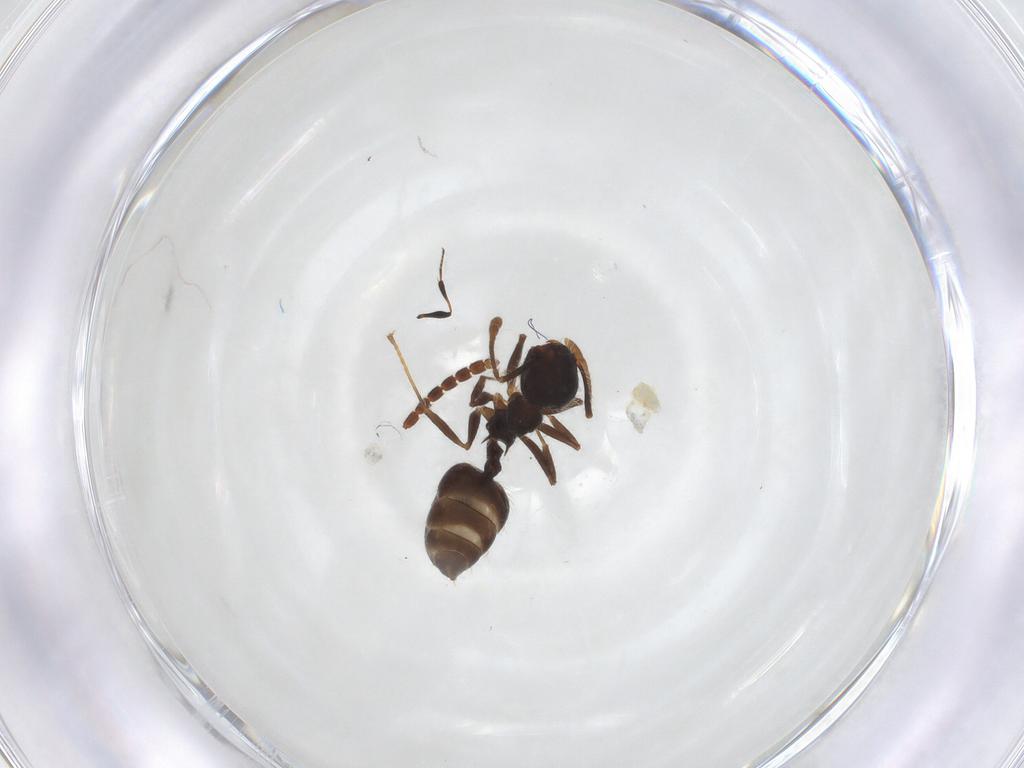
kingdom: Animalia
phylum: Arthropoda
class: Insecta
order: Hymenoptera
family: Formicidae
